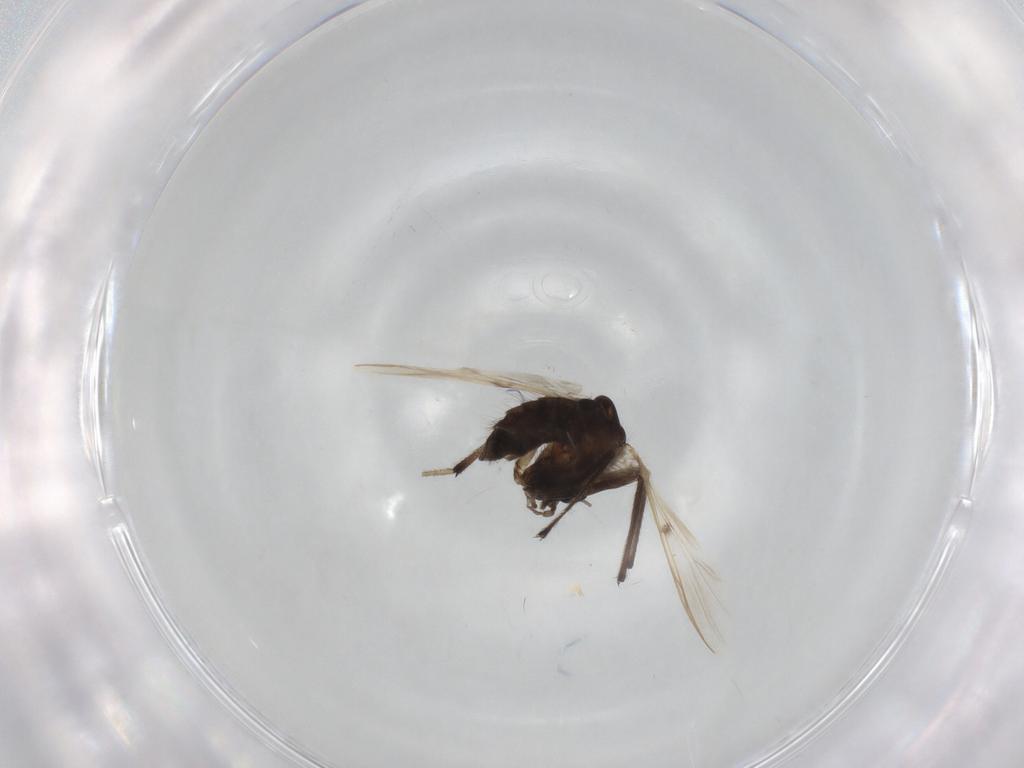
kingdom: Animalia
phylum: Arthropoda
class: Insecta
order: Diptera
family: Chironomidae
